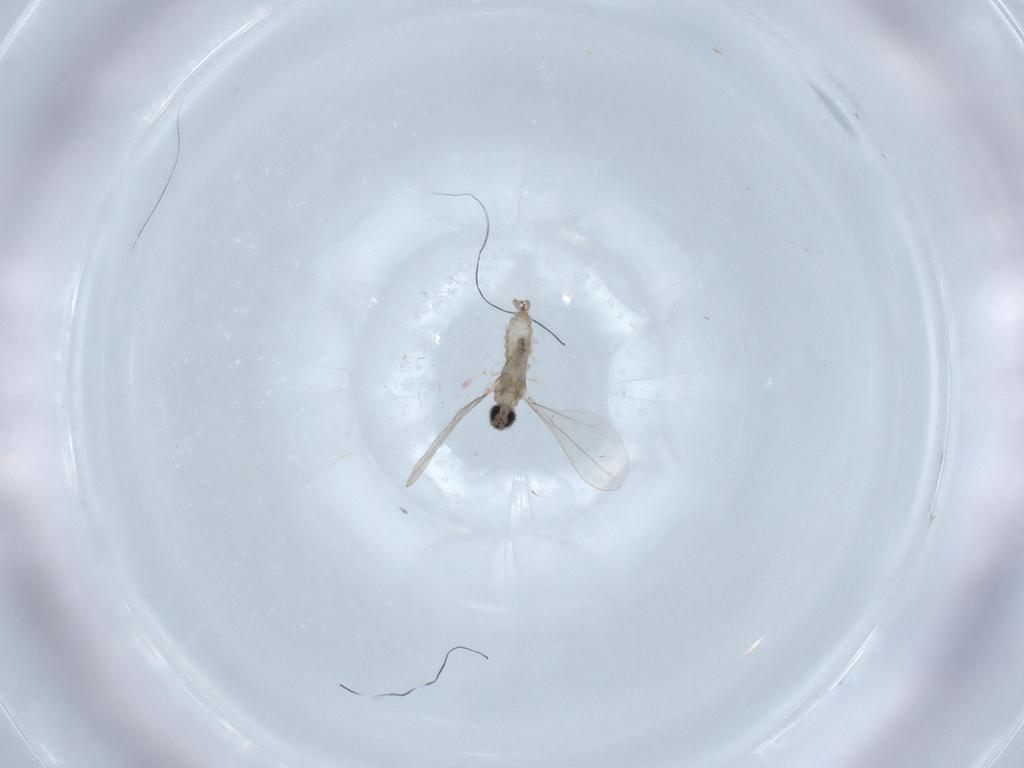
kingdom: Animalia
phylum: Arthropoda
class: Insecta
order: Diptera
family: Cecidomyiidae
